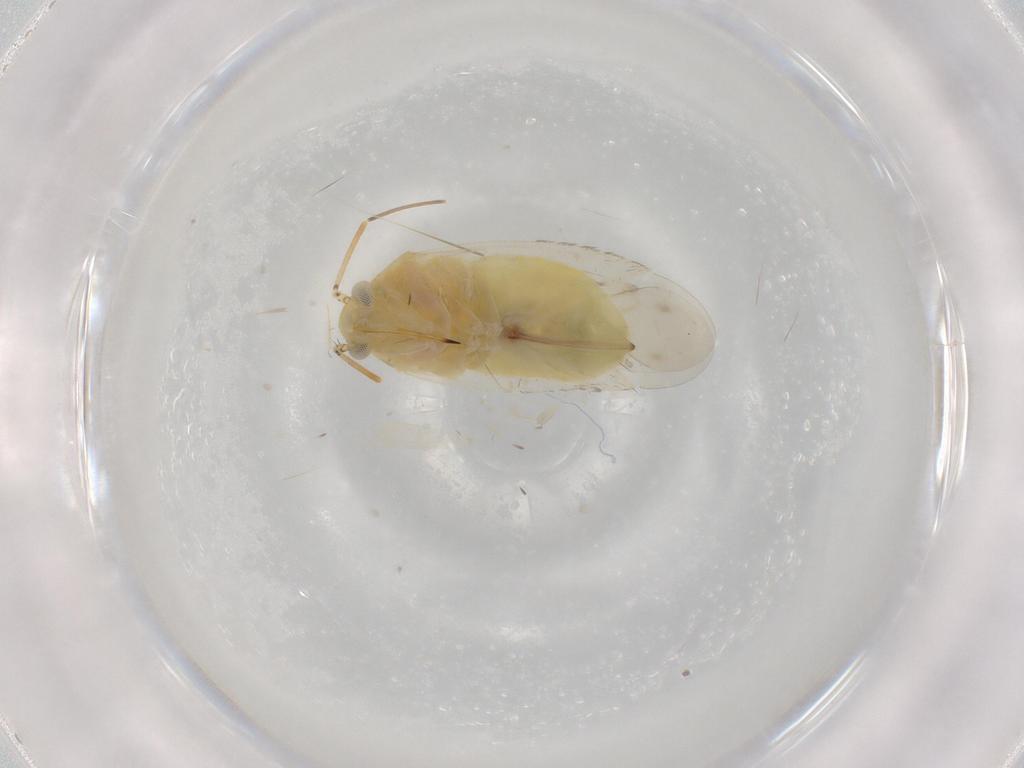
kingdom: Animalia
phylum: Arthropoda
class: Insecta
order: Hemiptera
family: Miridae
